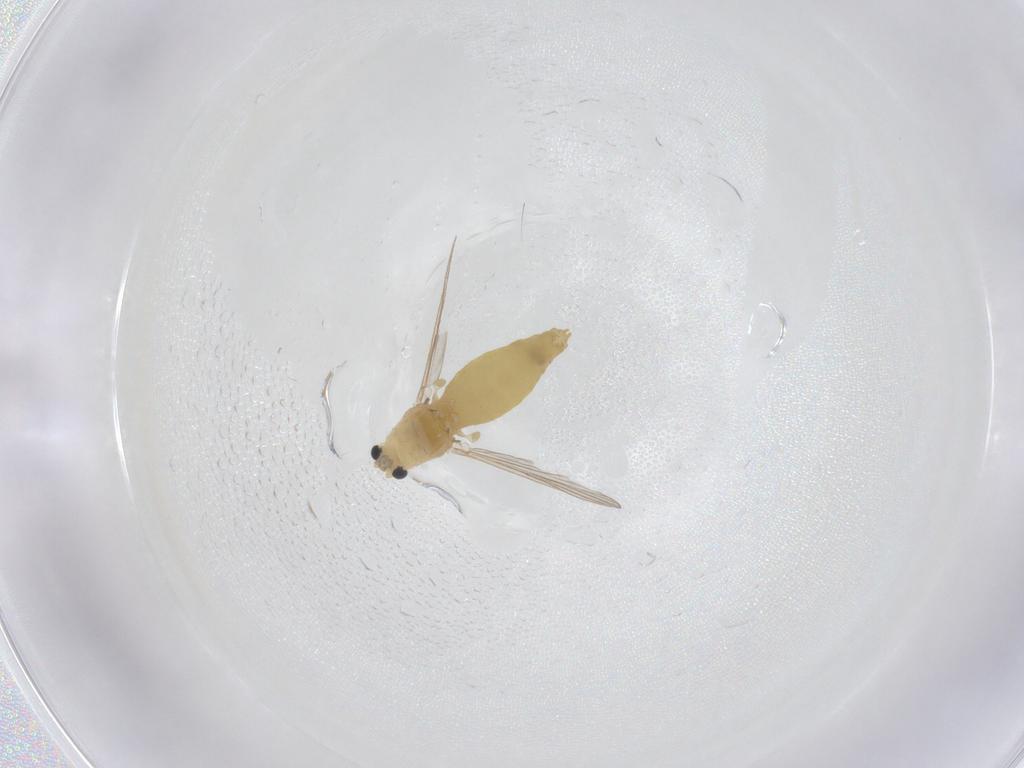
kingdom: Animalia
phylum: Arthropoda
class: Insecta
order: Diptera
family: Chironomidae
